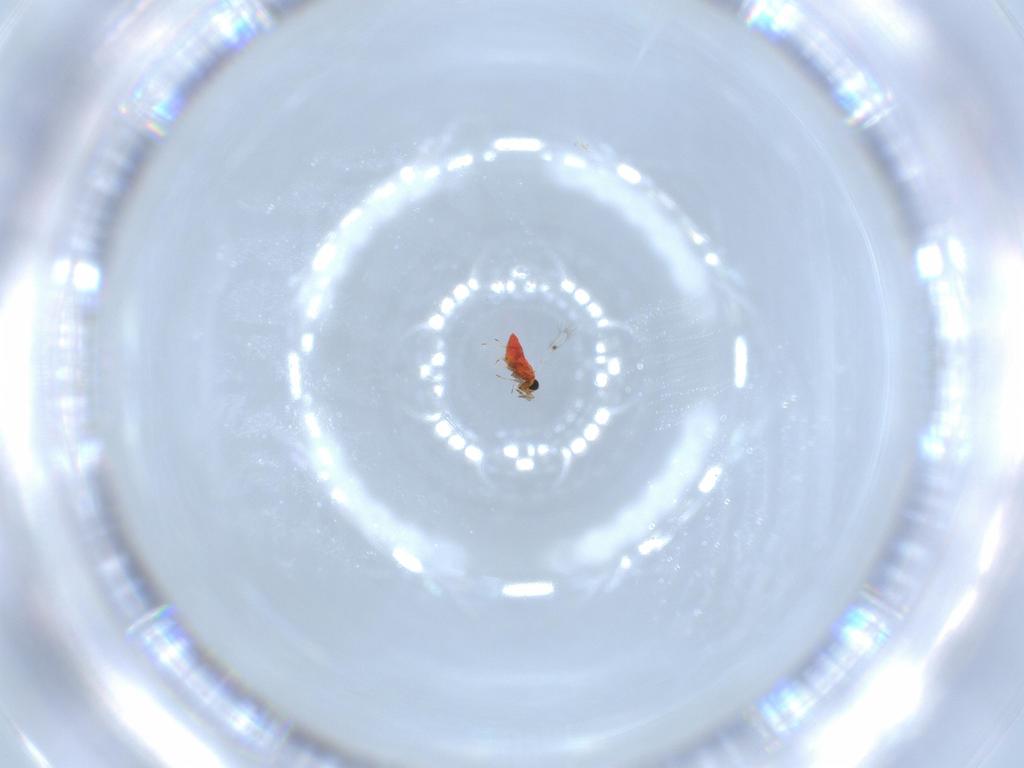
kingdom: Animalia
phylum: Arthropoda
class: Insecta
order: Hymenoptera
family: Trichogrammatidae
